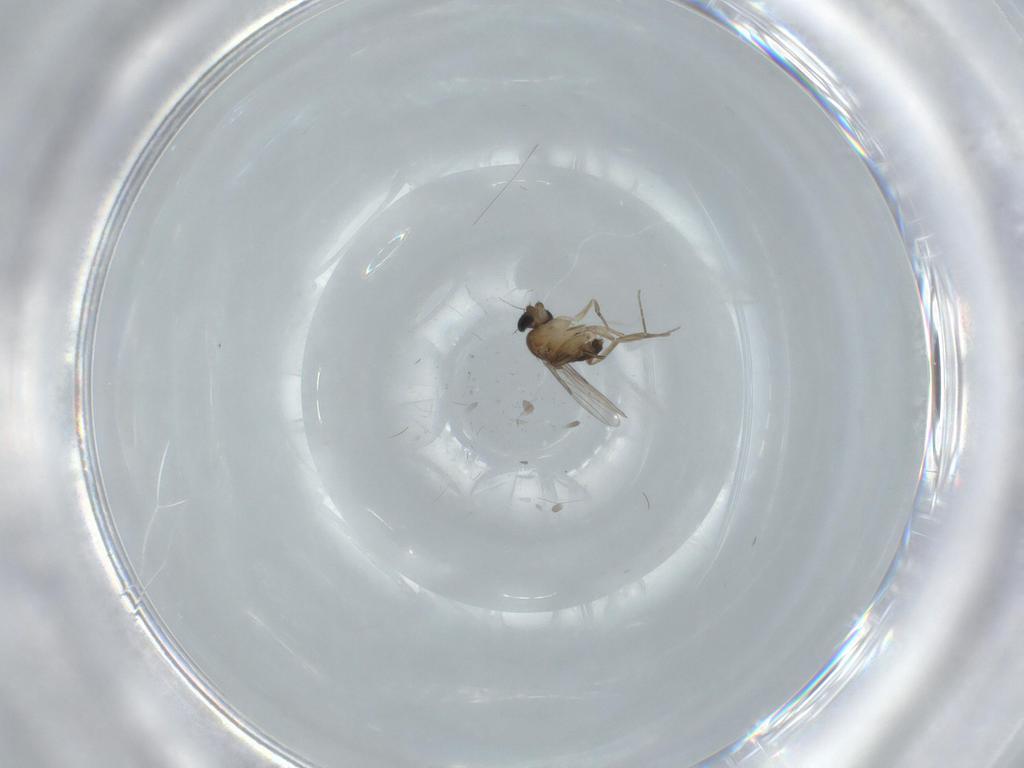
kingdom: Animalia
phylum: Arthropoda
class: Insecta
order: Diptera
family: Phoridae
